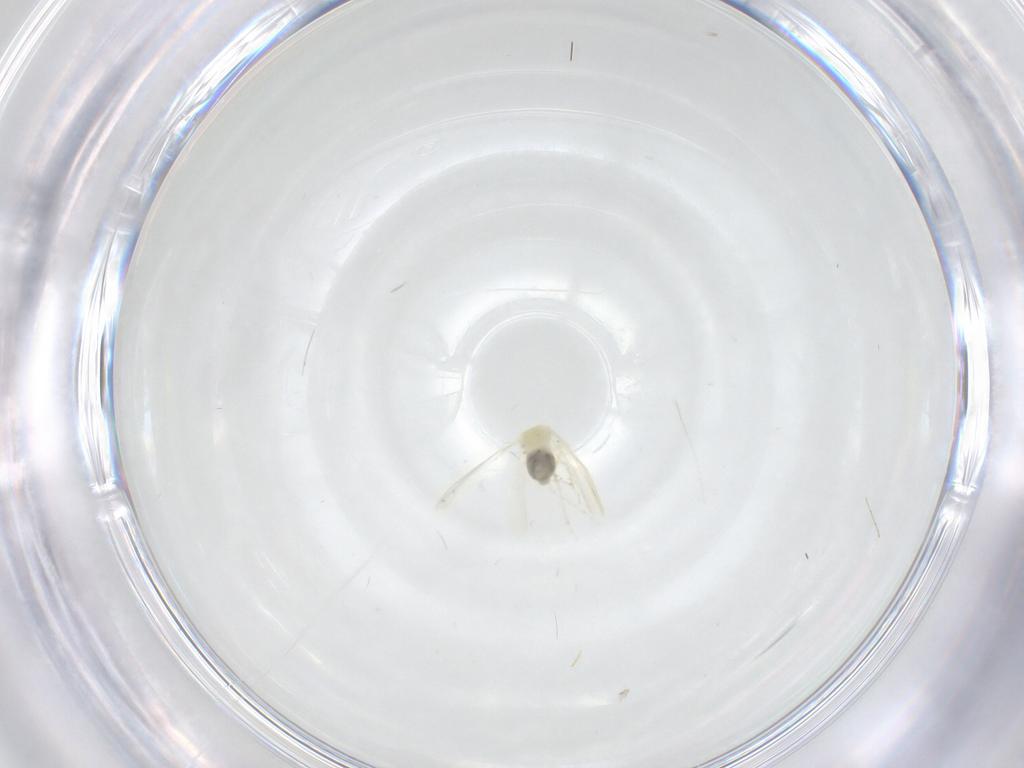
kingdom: Animalia
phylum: Arthropoda
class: Insecta
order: Hemiptera
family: Aleyrodidae
